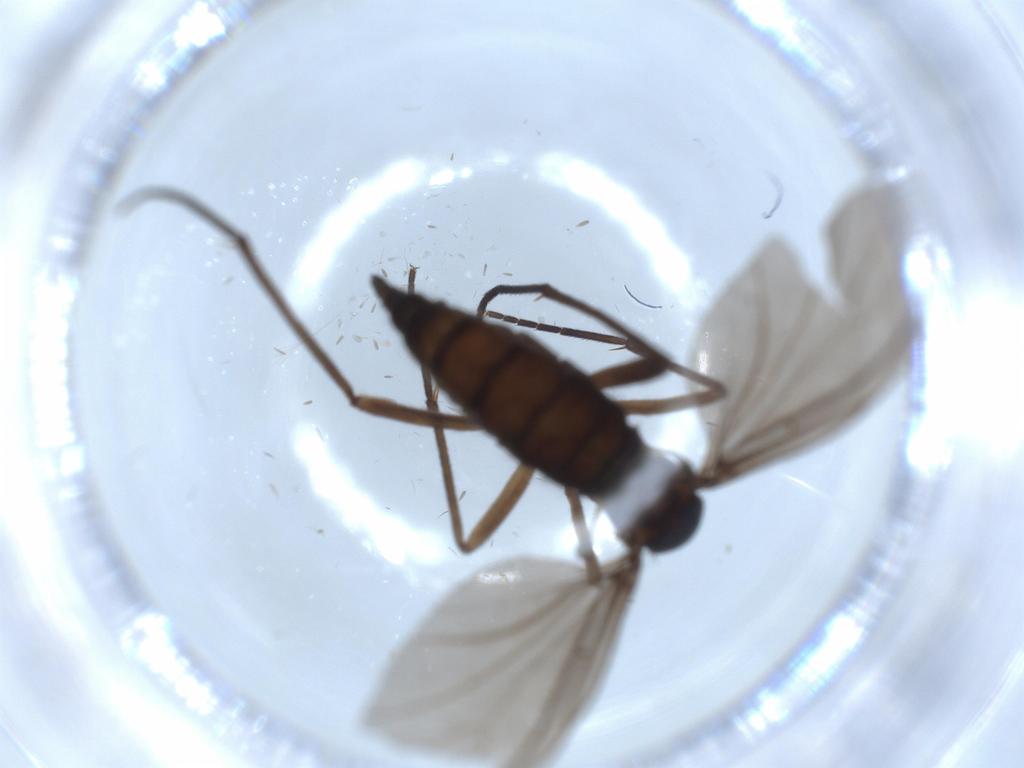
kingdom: Animalia
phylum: Arthropoda
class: Insecta
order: Diptera
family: Sciaridae
